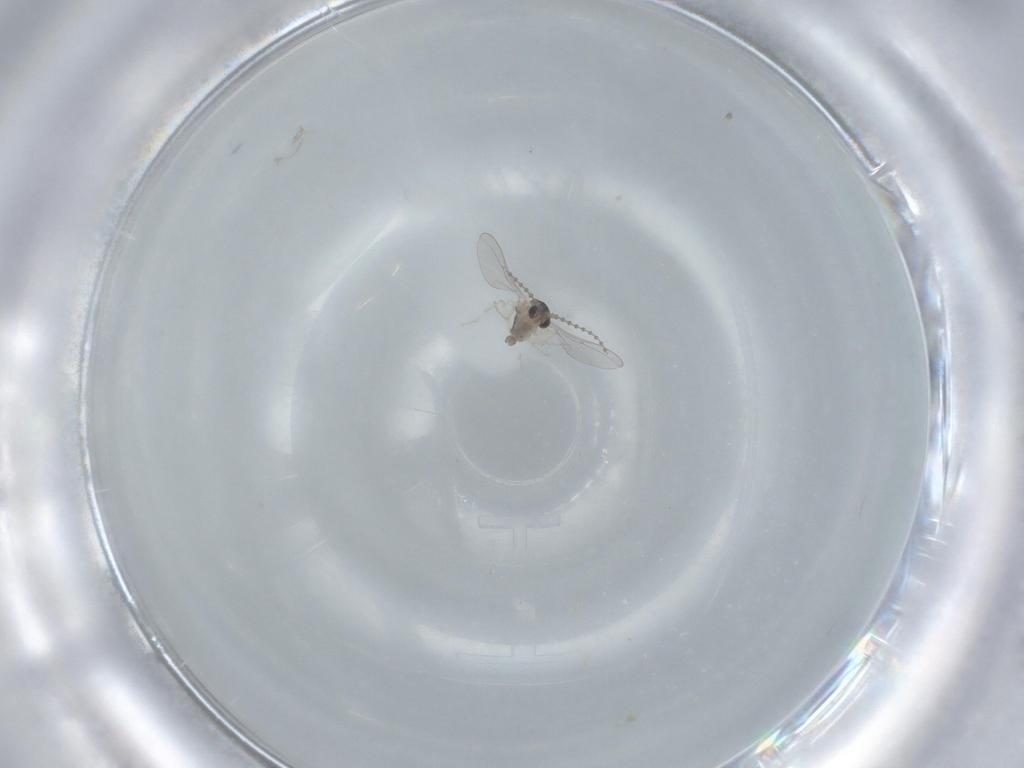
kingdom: Animalia
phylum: Arthropoda
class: Insecta
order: Diptera
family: Cecidomyiidae
